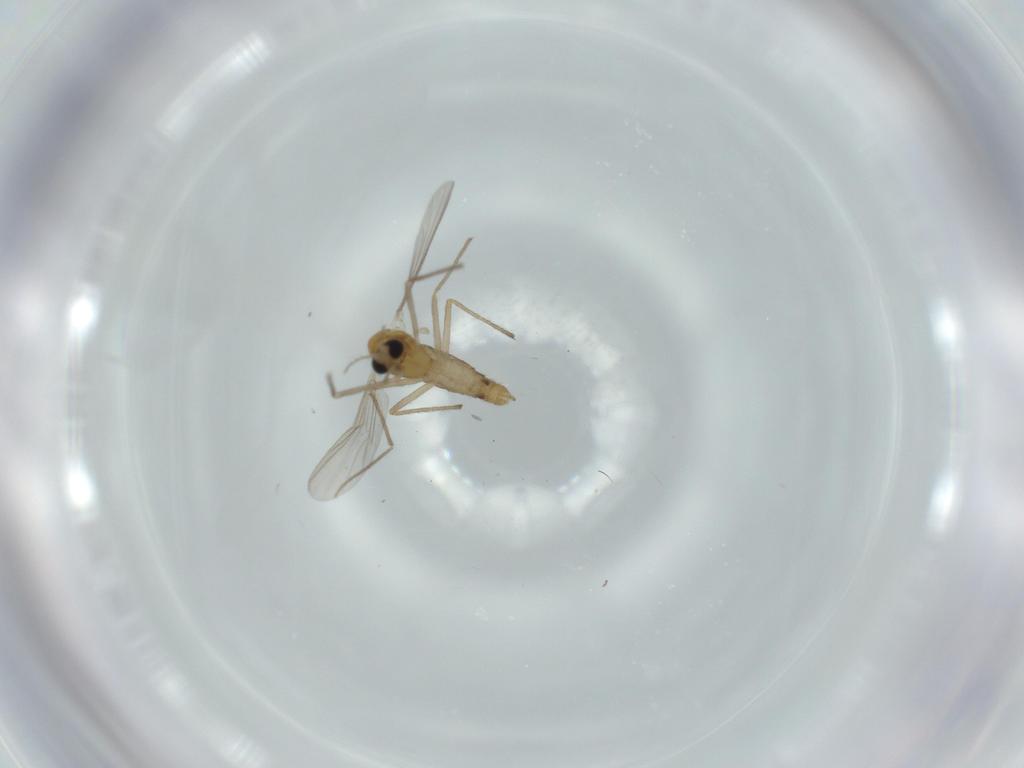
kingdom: Animalia
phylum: Arthropoda
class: Insecta
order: Diptera
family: Chironomidae
